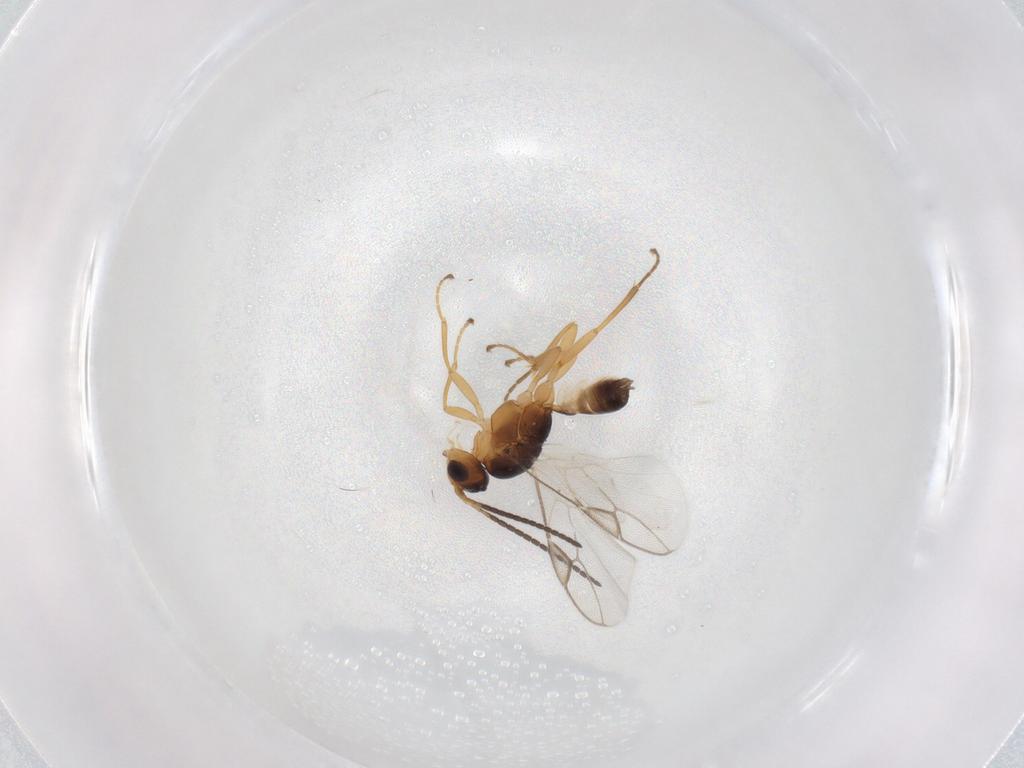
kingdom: Animalia
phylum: Arthropoda
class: Insecta
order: Hymenoptera
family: Braconidae
